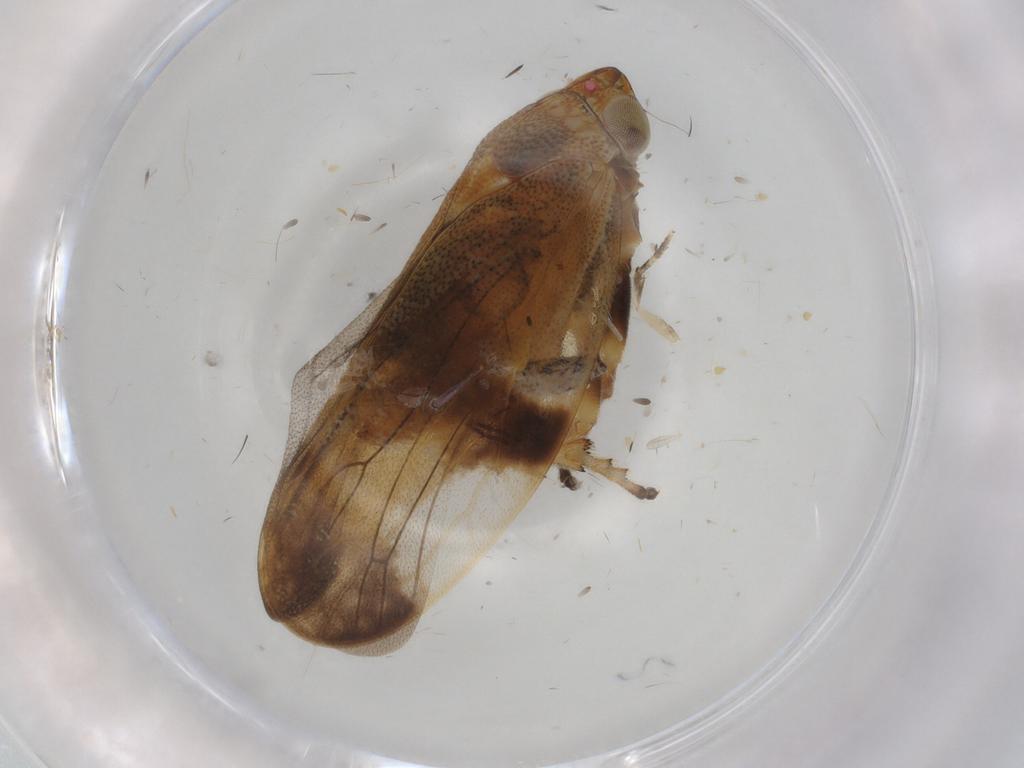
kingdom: Animalia
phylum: Arthropoda
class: Insecta
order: Hemiptera
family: Aphrophoridae
